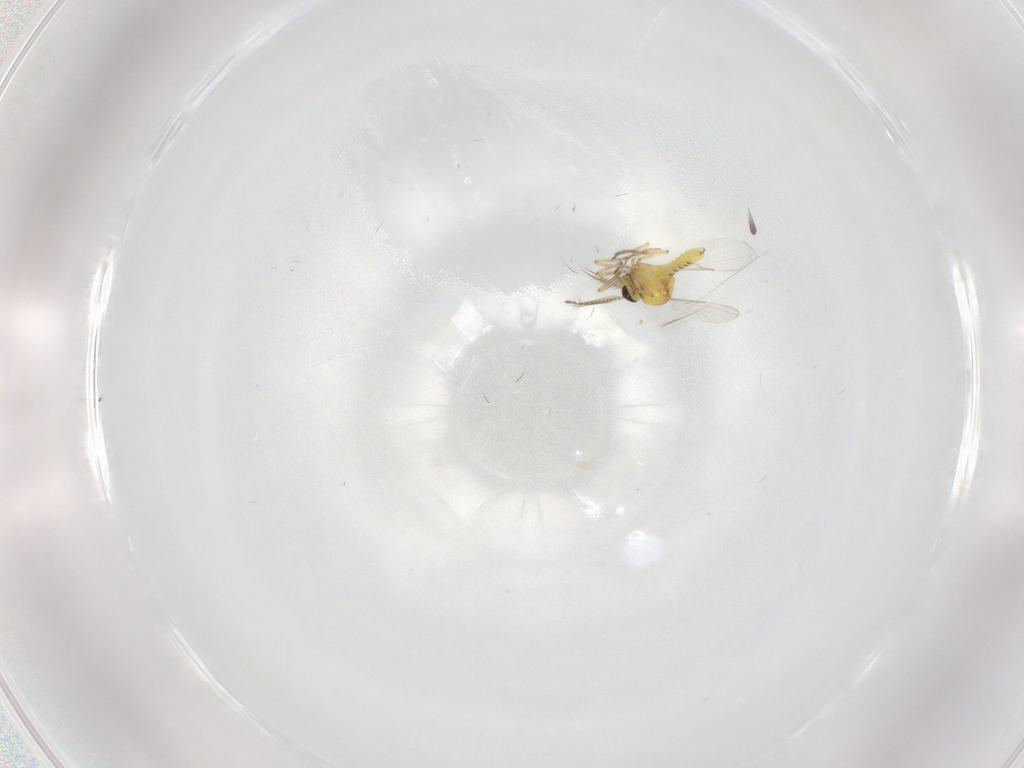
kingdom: Animalia
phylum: Arthropoda
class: Insecta
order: Diptera
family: Ceratopogonidae
